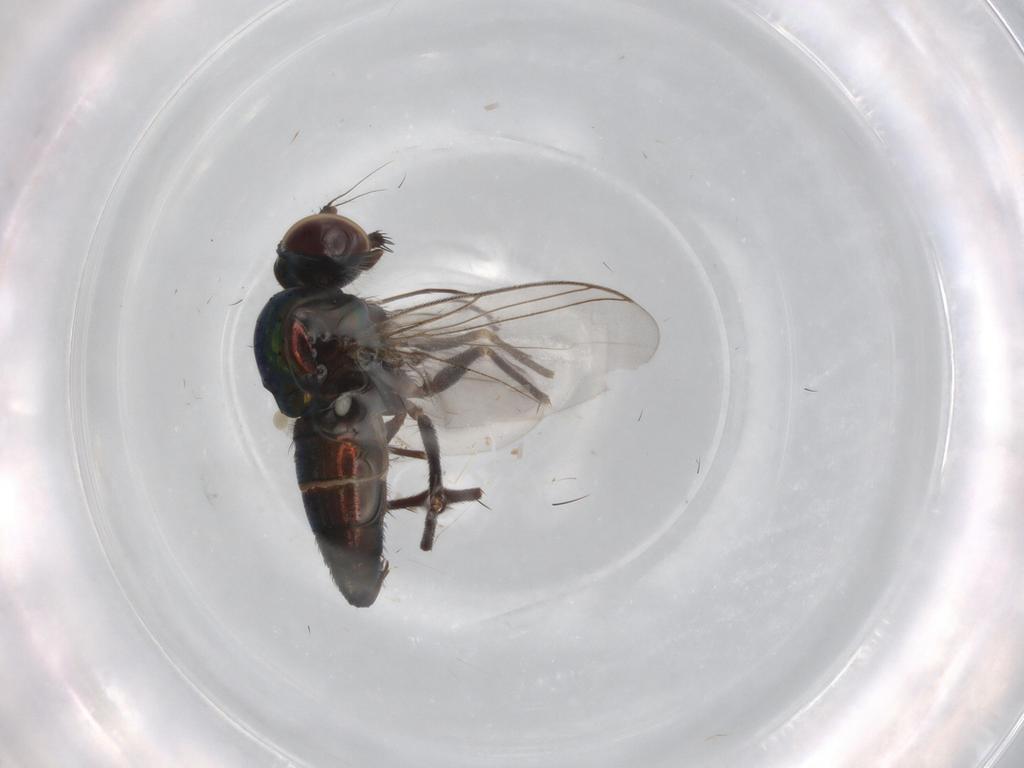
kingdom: Animalia
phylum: Arthropoda
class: Insecta
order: Diptera
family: Dolichopodidae
